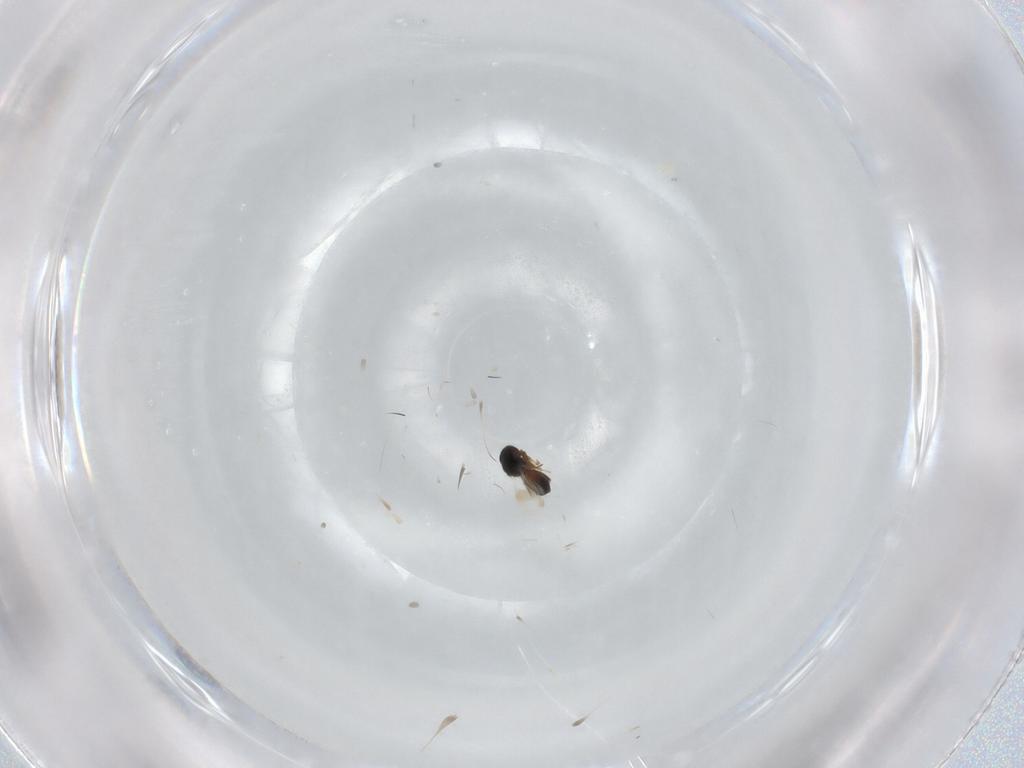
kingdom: Animalia
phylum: Arthropoda
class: Insecta
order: Hymenoptera
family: Platygastridae
